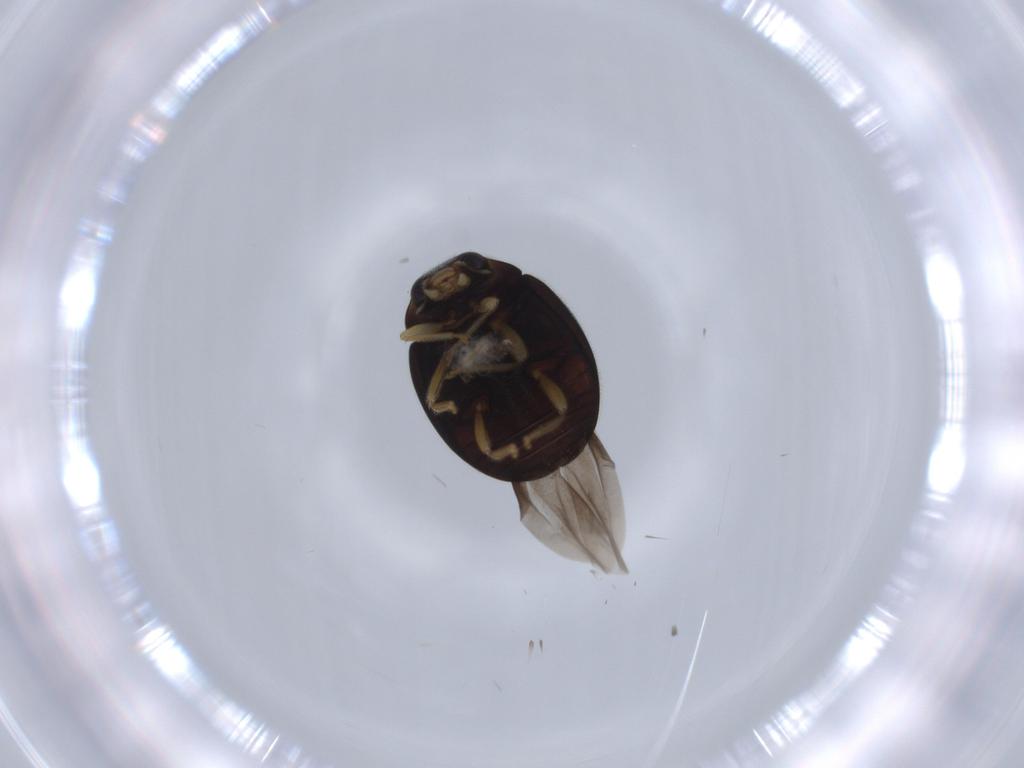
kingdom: Animalia
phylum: Arthropoda
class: Insecta
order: Coleoptera
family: Coccinellidae
